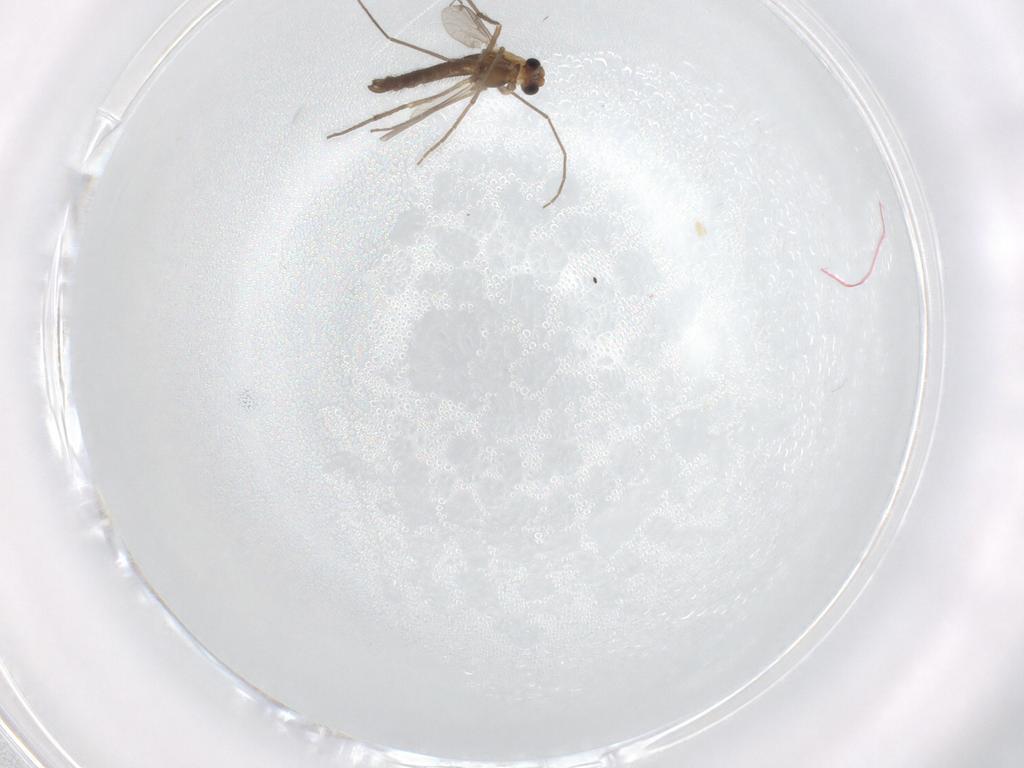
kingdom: Animalia
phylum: Arthropoda
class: Insecta
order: Diptera
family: Chironomidae
